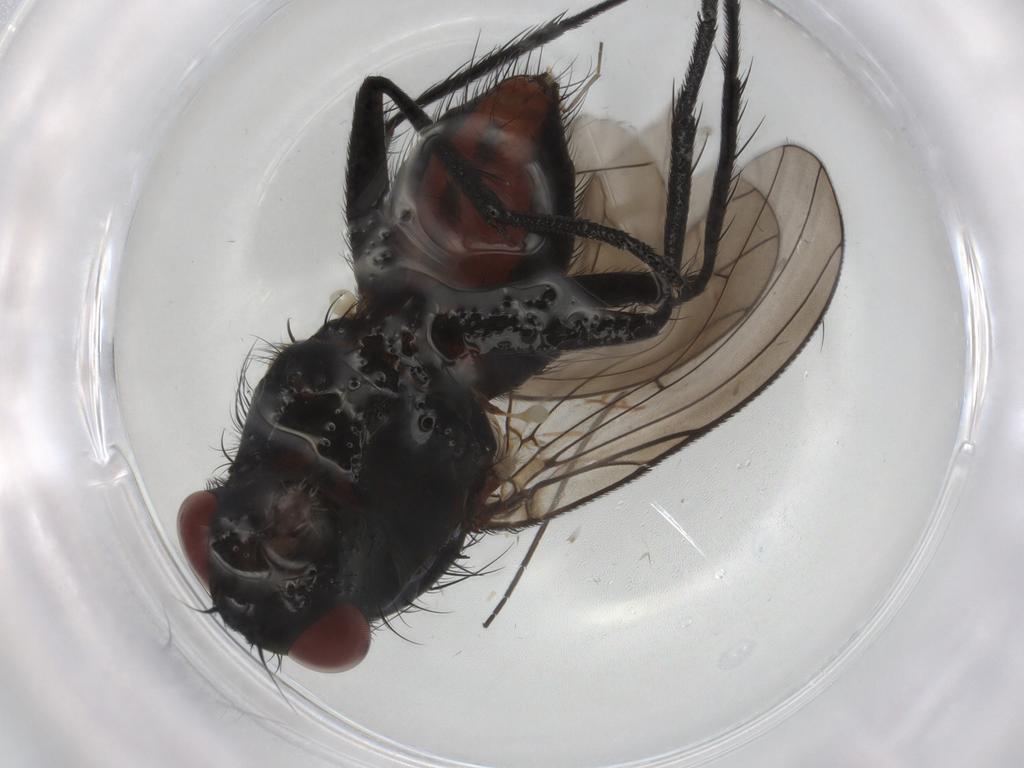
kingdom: Animalia
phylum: Arthropoda
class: Insecta
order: Diptera
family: Anthomyiidae
